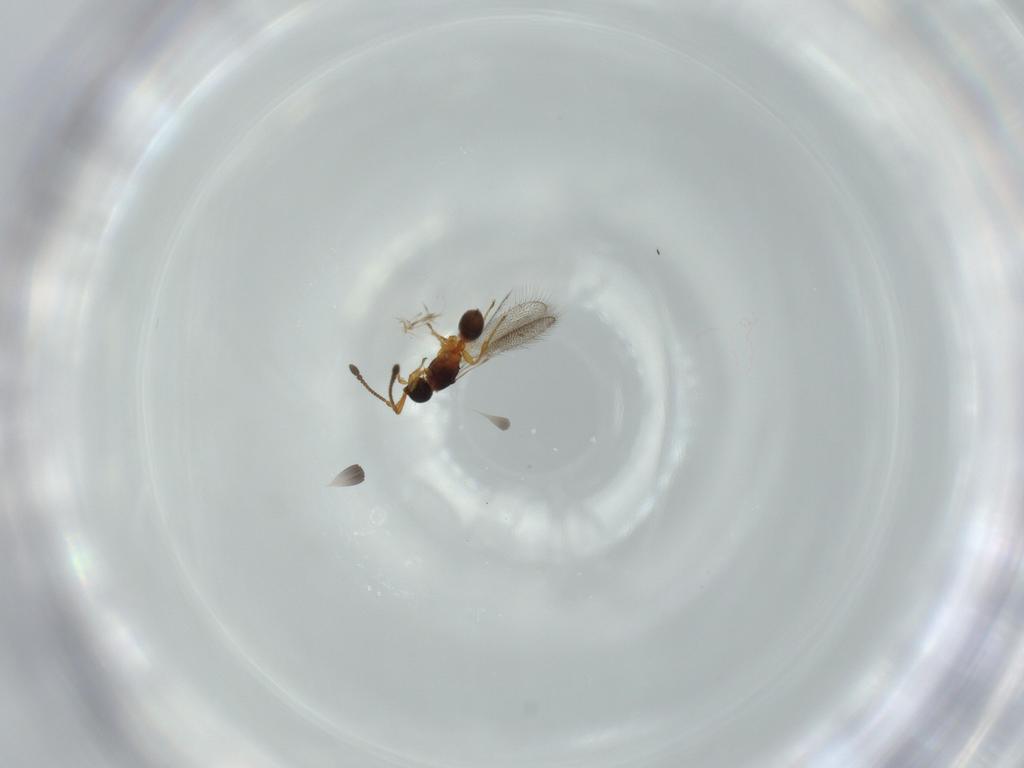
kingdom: Animalia
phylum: Arthropoda
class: Insecta
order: Hymenoptera
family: Diapriidae
